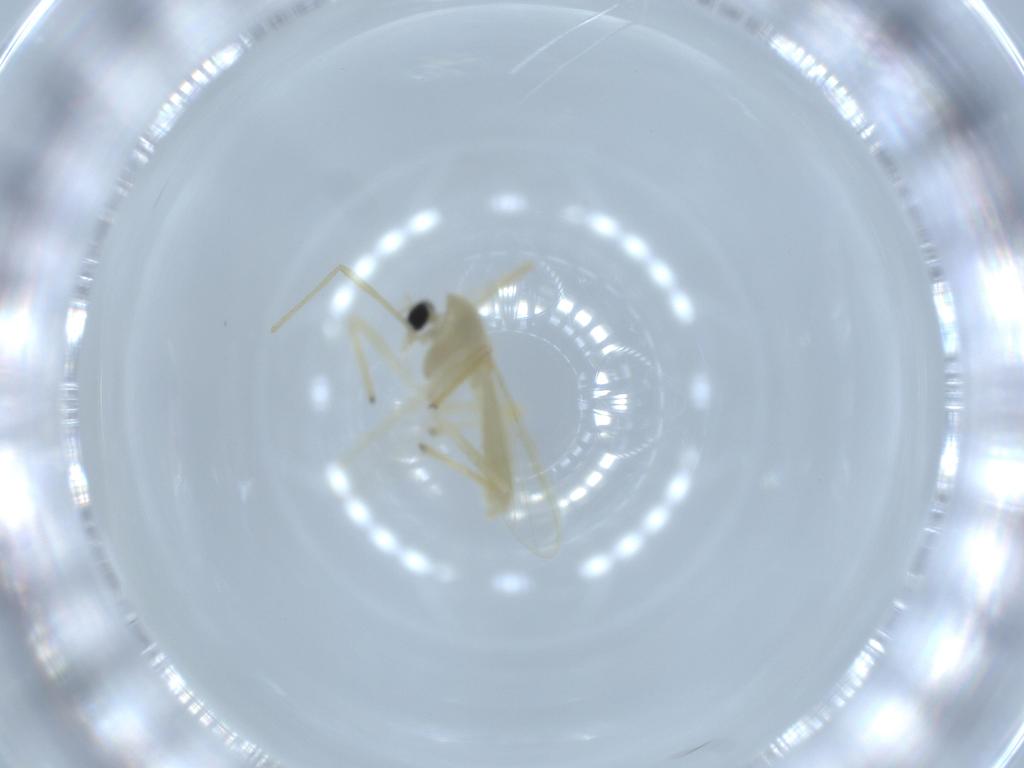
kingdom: Animalia
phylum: Arthropoda
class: Insecta
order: Diptera
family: Chironomidae
